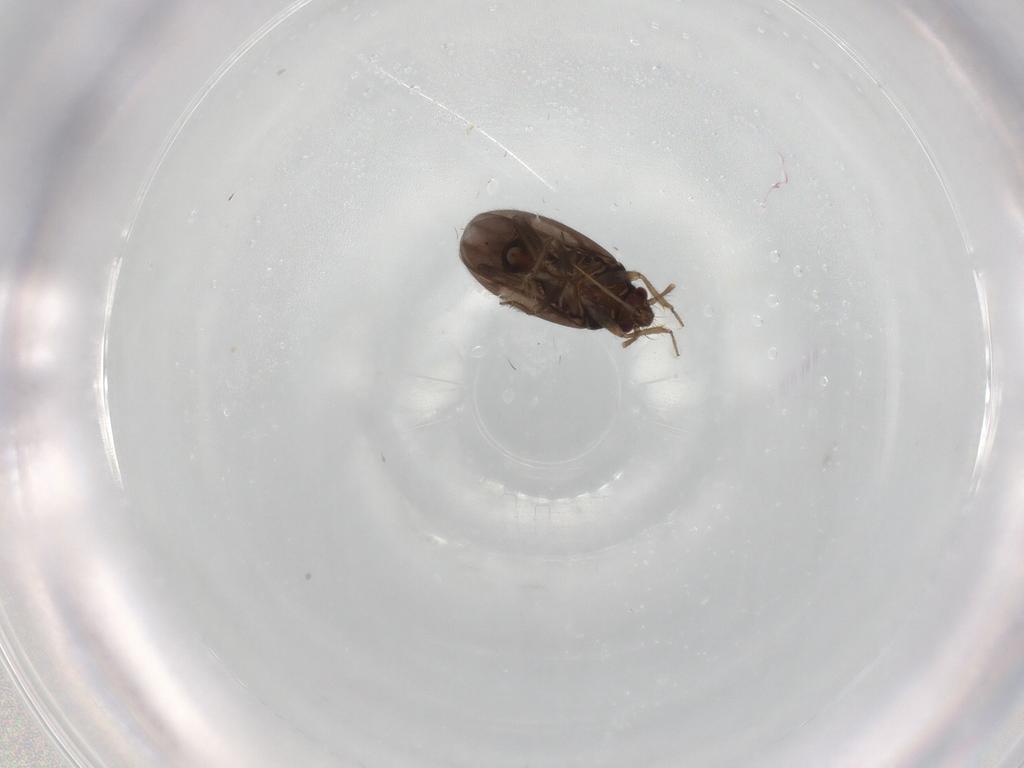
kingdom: Animalia
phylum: Arthropoda
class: Insecta
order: Hemiptera
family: Ceratocombidae
